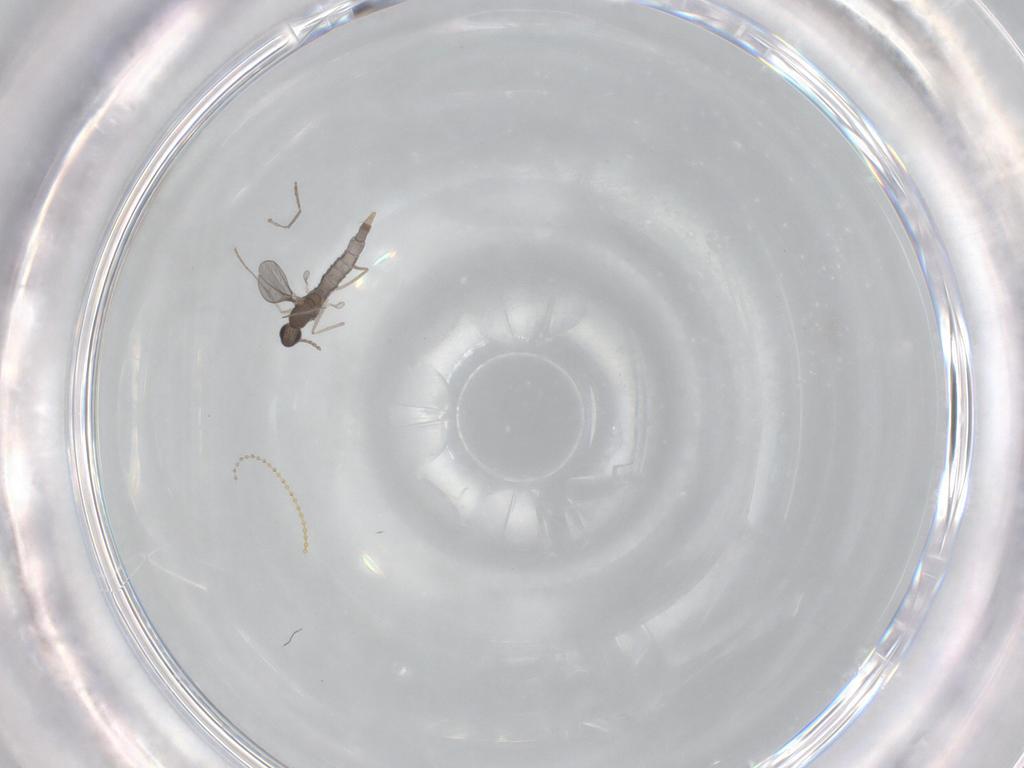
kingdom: Animalia
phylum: Arthropoda
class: Insecta
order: Diptera
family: Cecidomyiidae
